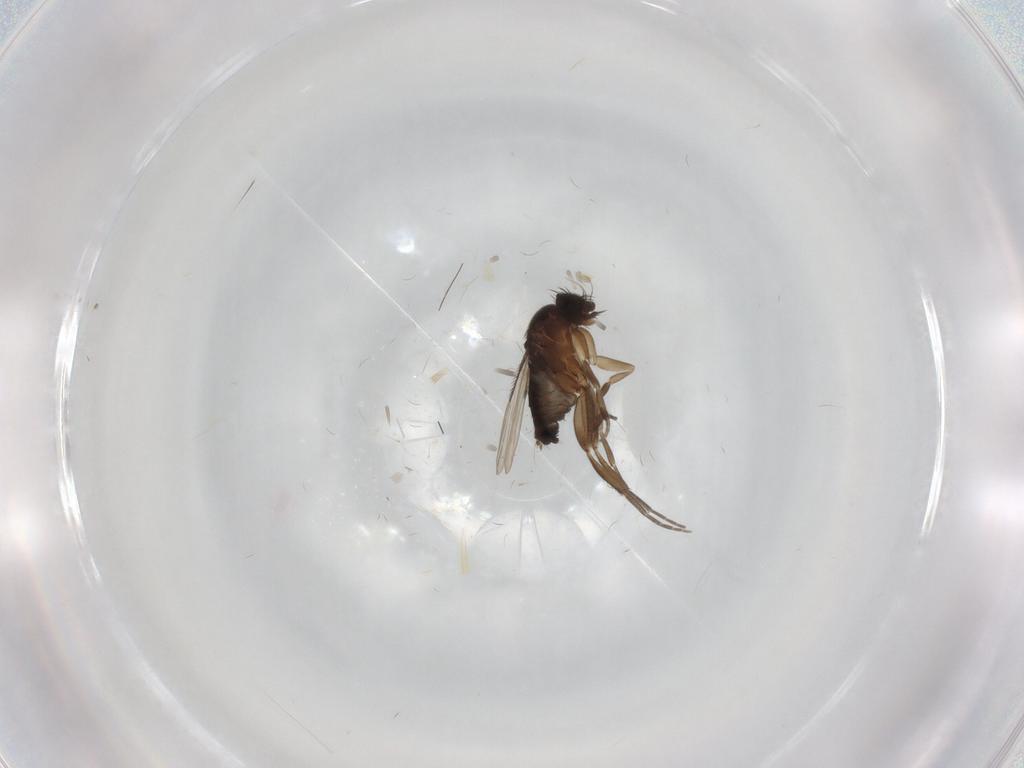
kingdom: Animalia
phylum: Arthropoda
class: Insecta
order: Diptera
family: Phoridae
